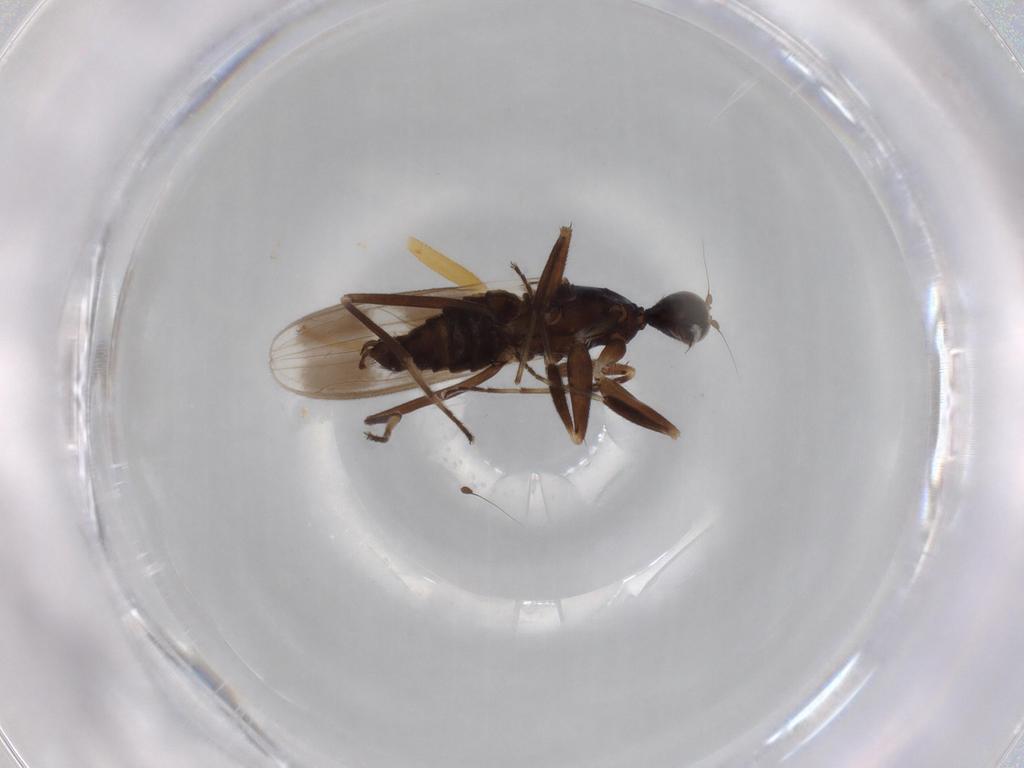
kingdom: Animalia
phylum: Arthropoda
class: Insecta
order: Diptera
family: Hybotidae
